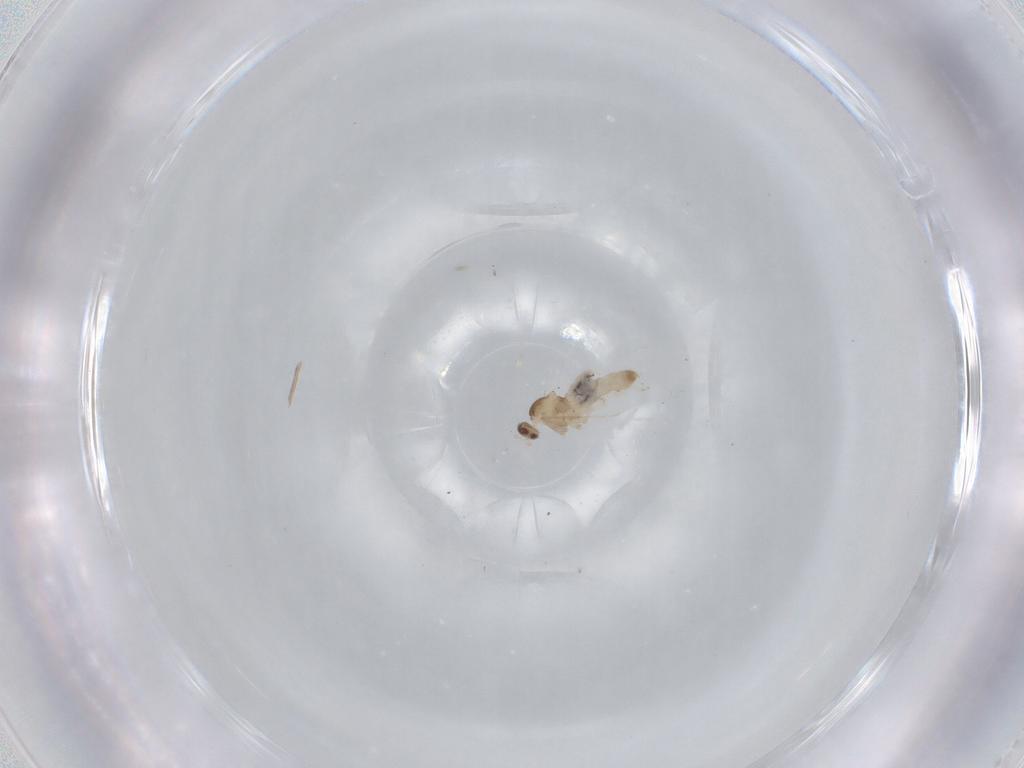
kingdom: Animalia
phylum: Arthropoda
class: Insecta
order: Diptera
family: Cecidomyiidae
